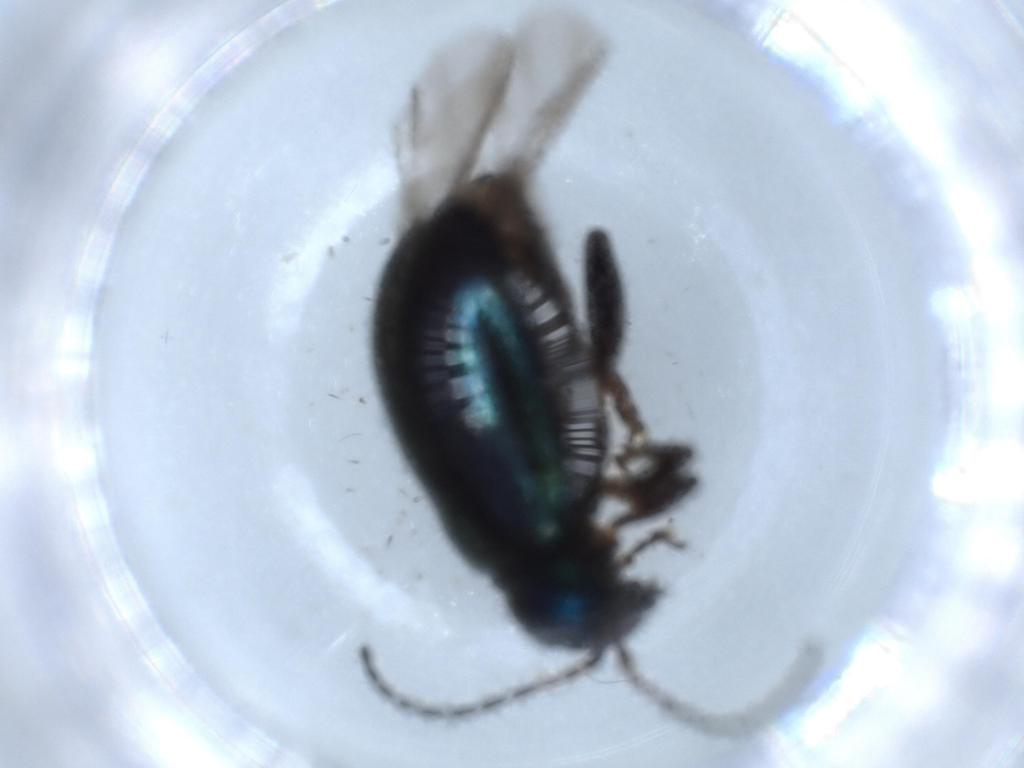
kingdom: Animalia
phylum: Arthropoda
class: Insecta
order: Coleoptera
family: Chrysomelidae
